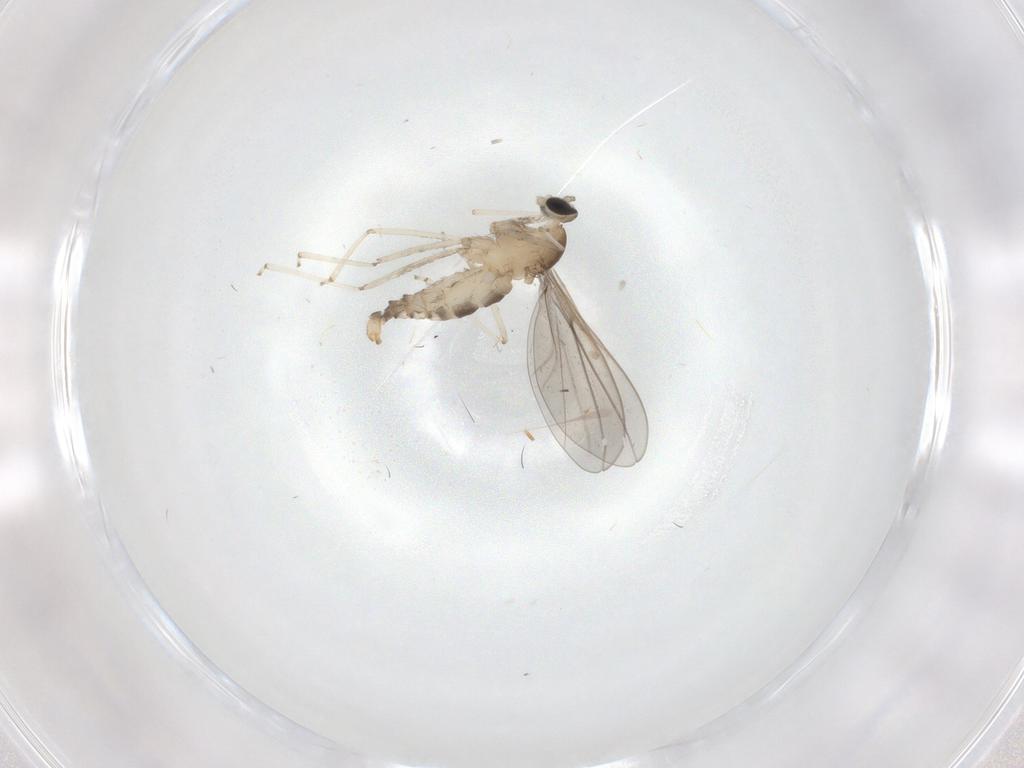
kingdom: Animalia
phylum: Arthropoda
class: Insecta
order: Diptera
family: Cecidomyiidae
